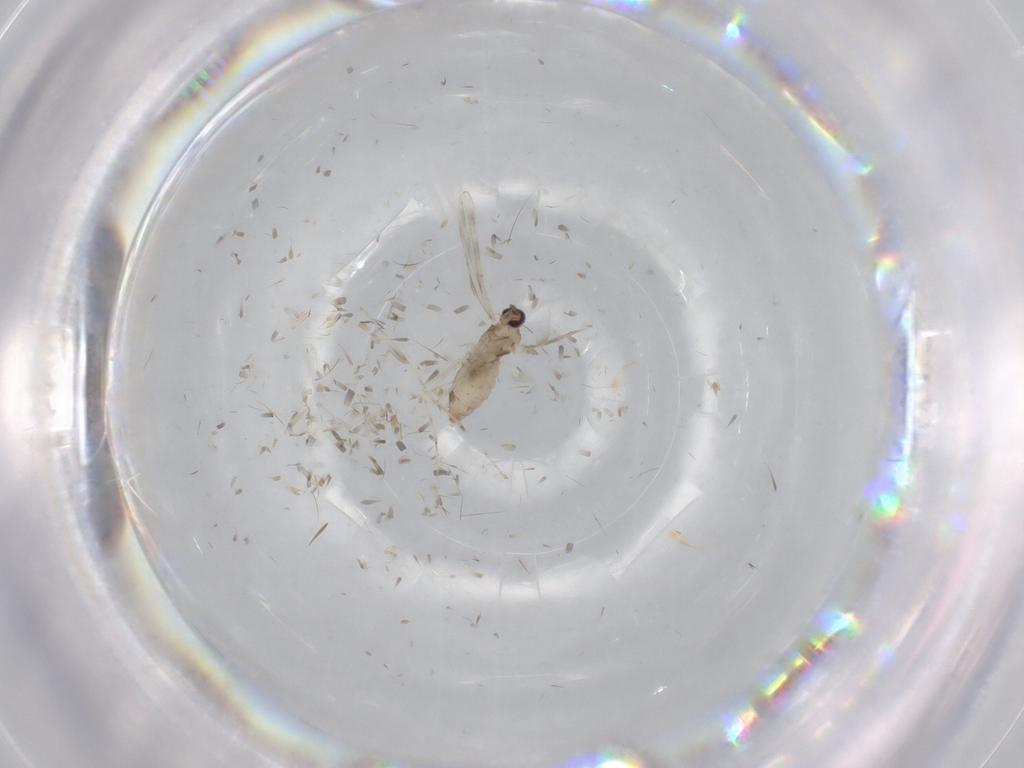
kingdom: Animalia
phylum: Arthropoda
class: Insecta
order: Diptera
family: Cecidomyiidae
